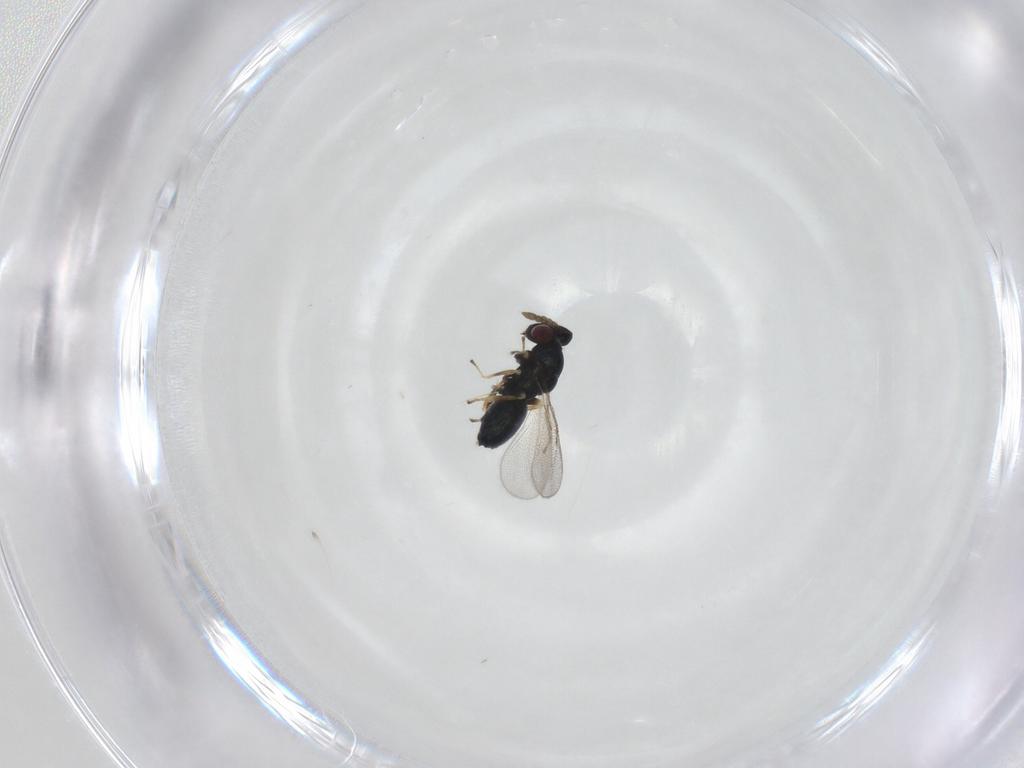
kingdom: Animalia
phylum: Arthropoda
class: Insecta
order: Hymenoptera
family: Eulophidae
